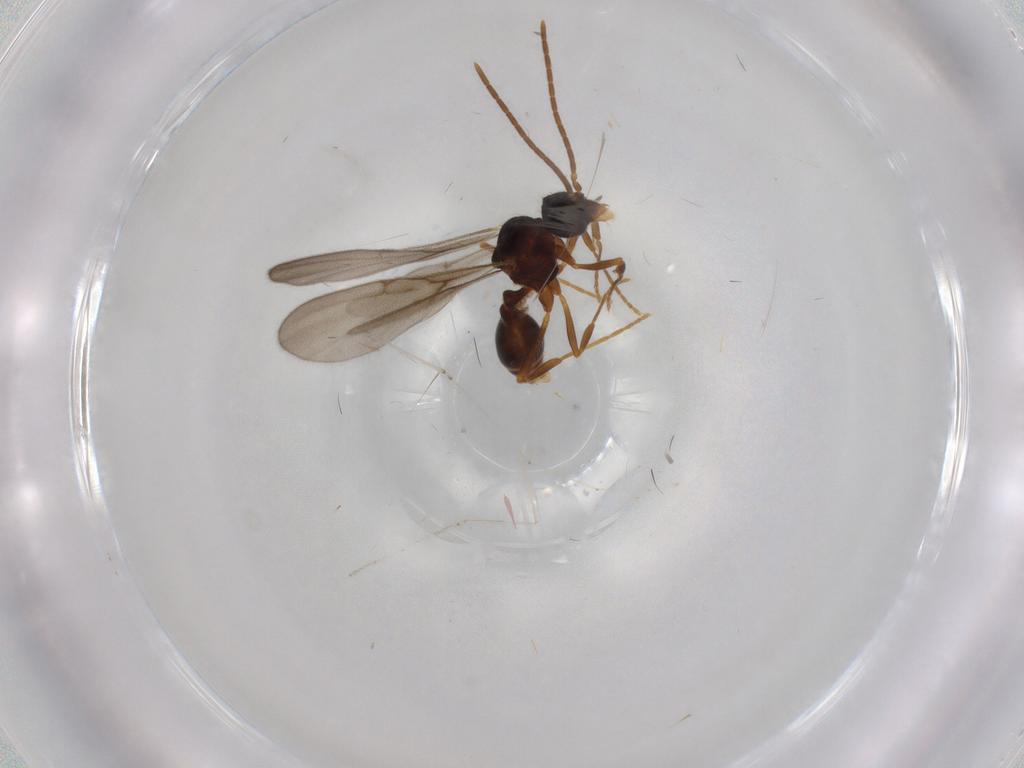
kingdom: Animalia
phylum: Arthropoda
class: Insecta
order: Hymenoptera
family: Formicidae
